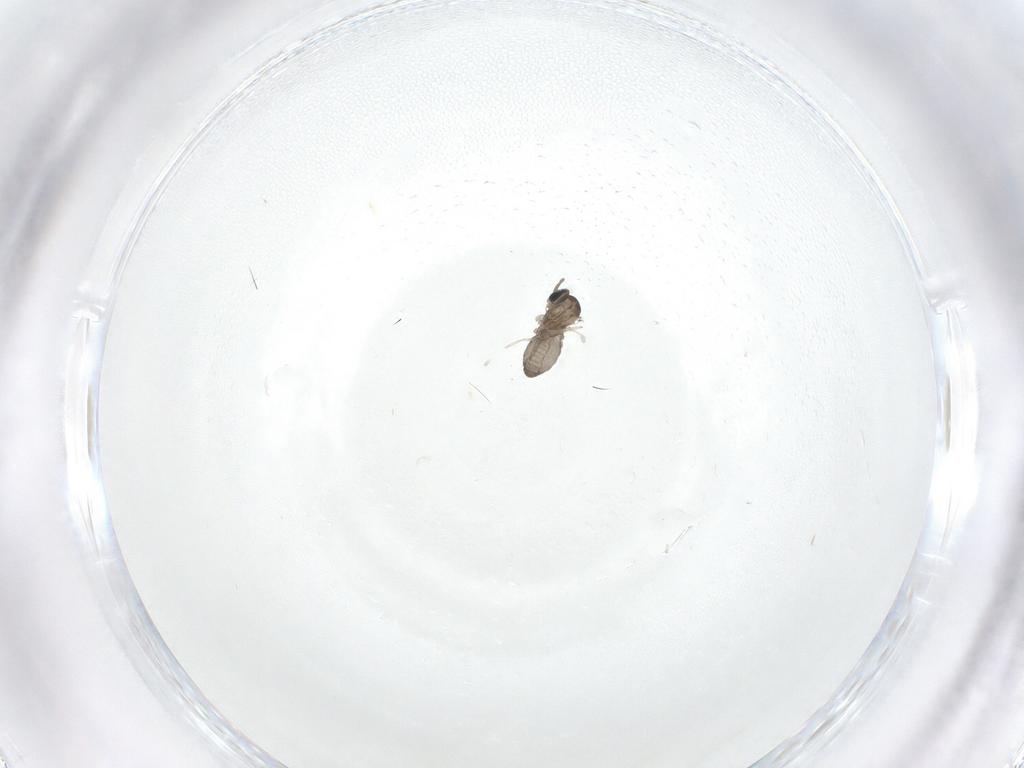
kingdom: Animalia
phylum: Arthropoda
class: Insecta
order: Diptera
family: Cecidomyiidae
